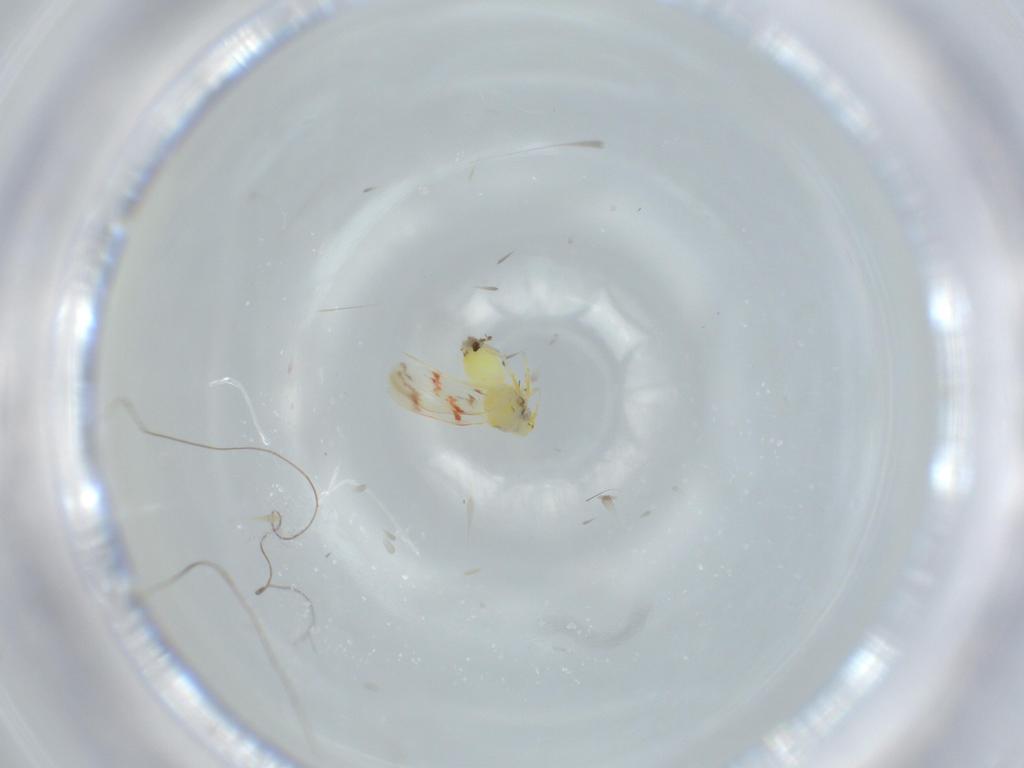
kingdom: Animalia
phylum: Arthropoda
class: Insecta
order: Hemiptera
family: Aleyrodidae
